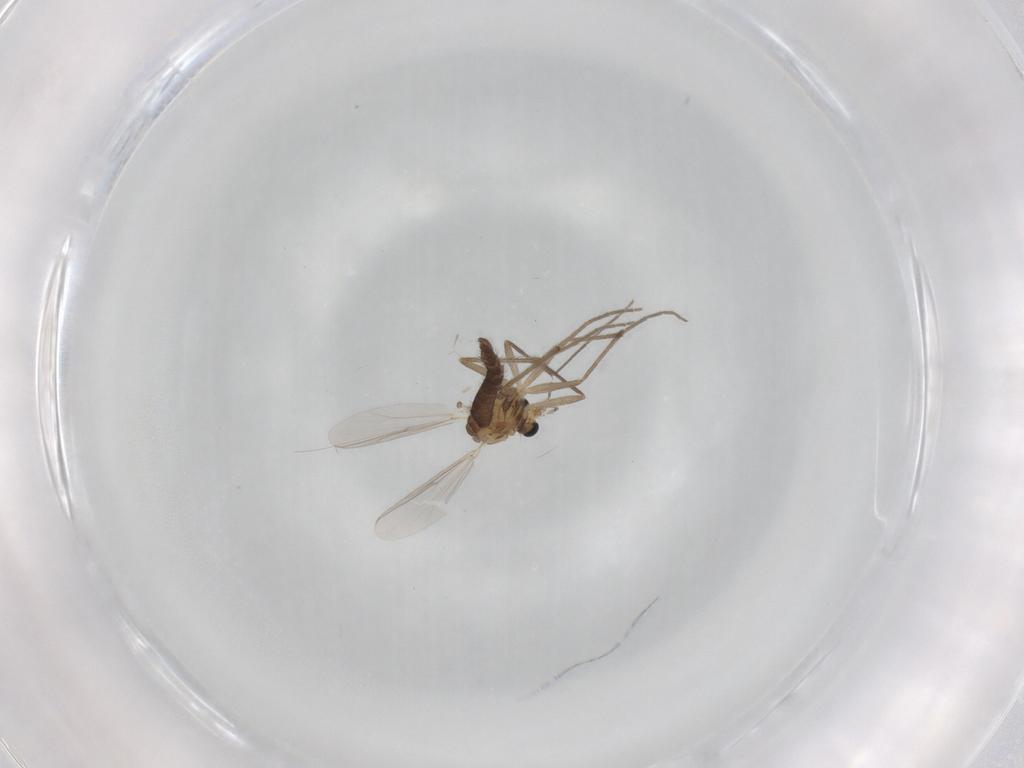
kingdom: Animalia
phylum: Arthropoda
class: Insecta
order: Diptera
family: Chironomidae
